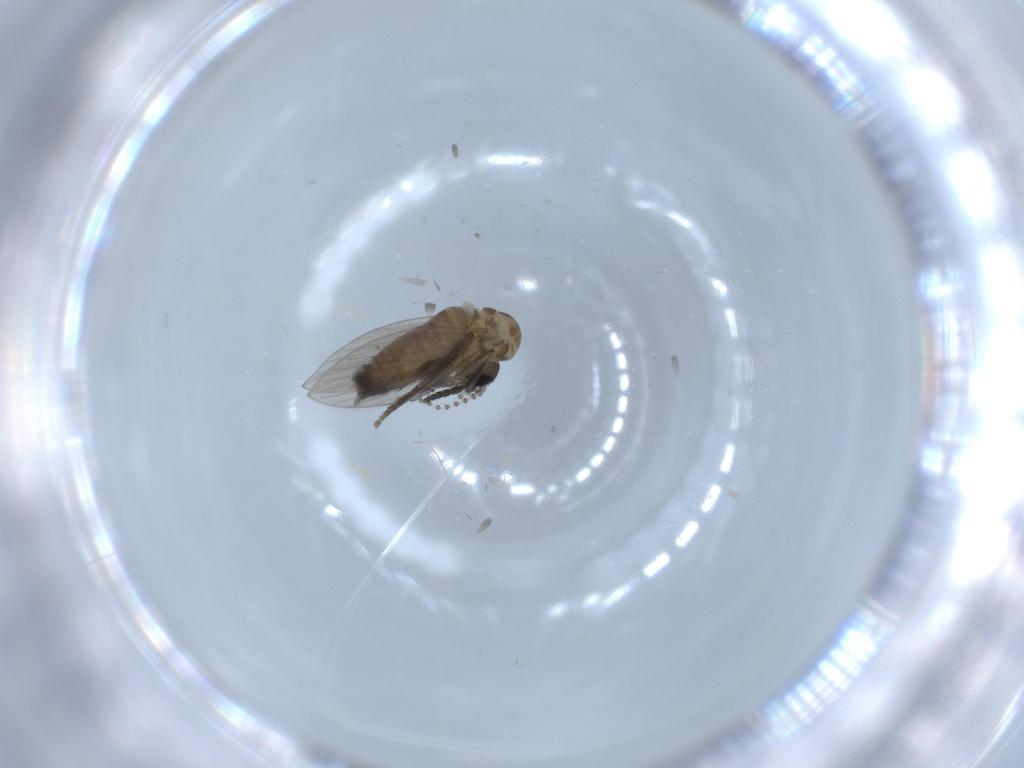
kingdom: Animalia
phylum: Arthropoda
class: Insecta
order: Diptera
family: Psychodidae
